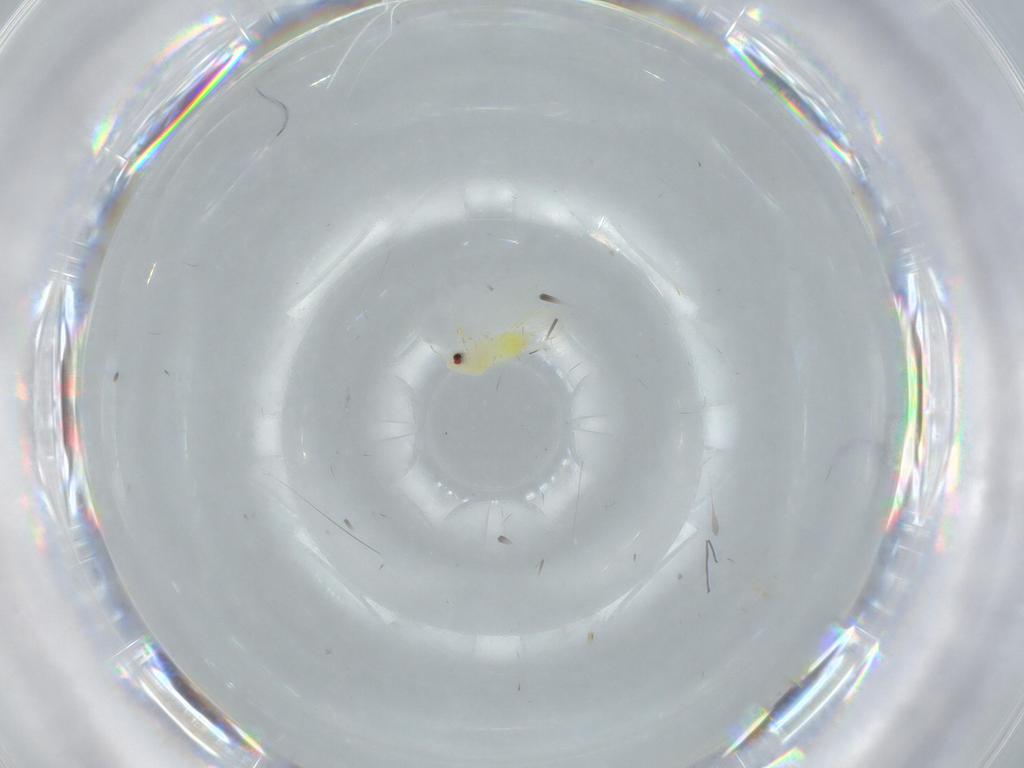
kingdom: Animalia
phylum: Arthropoda
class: Insecta
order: Hemiptera
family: Aleyrodidae
